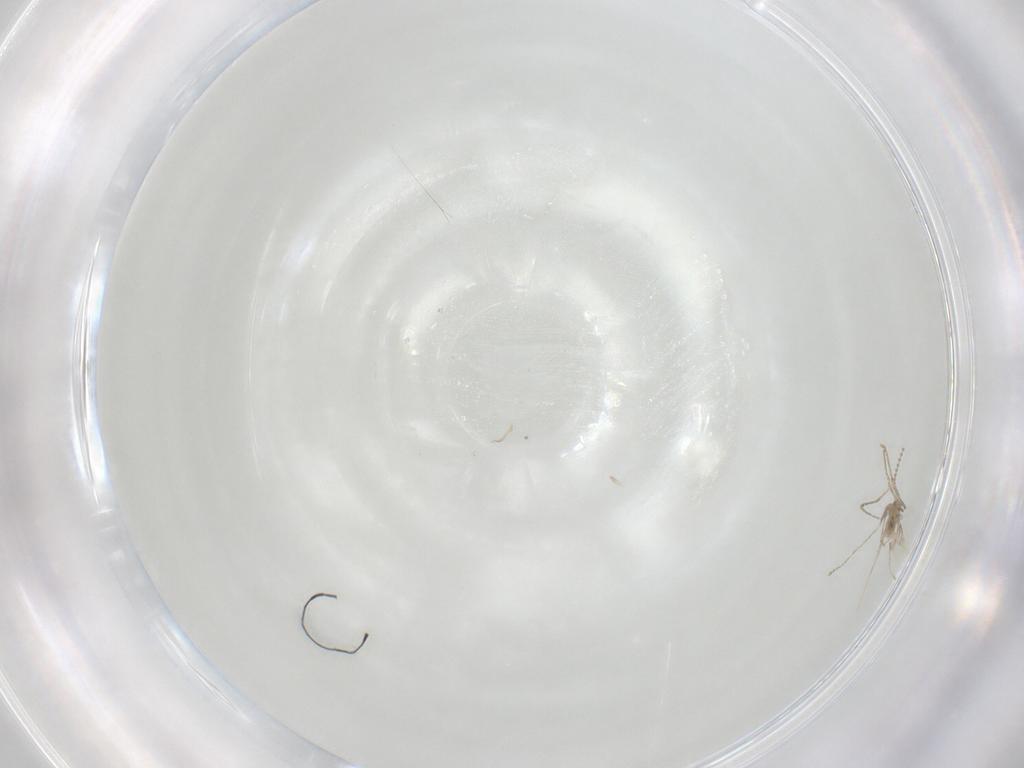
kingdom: Animalia
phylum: Arthropoda
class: Insecta
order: Diptera
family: Cecidomyiidae
